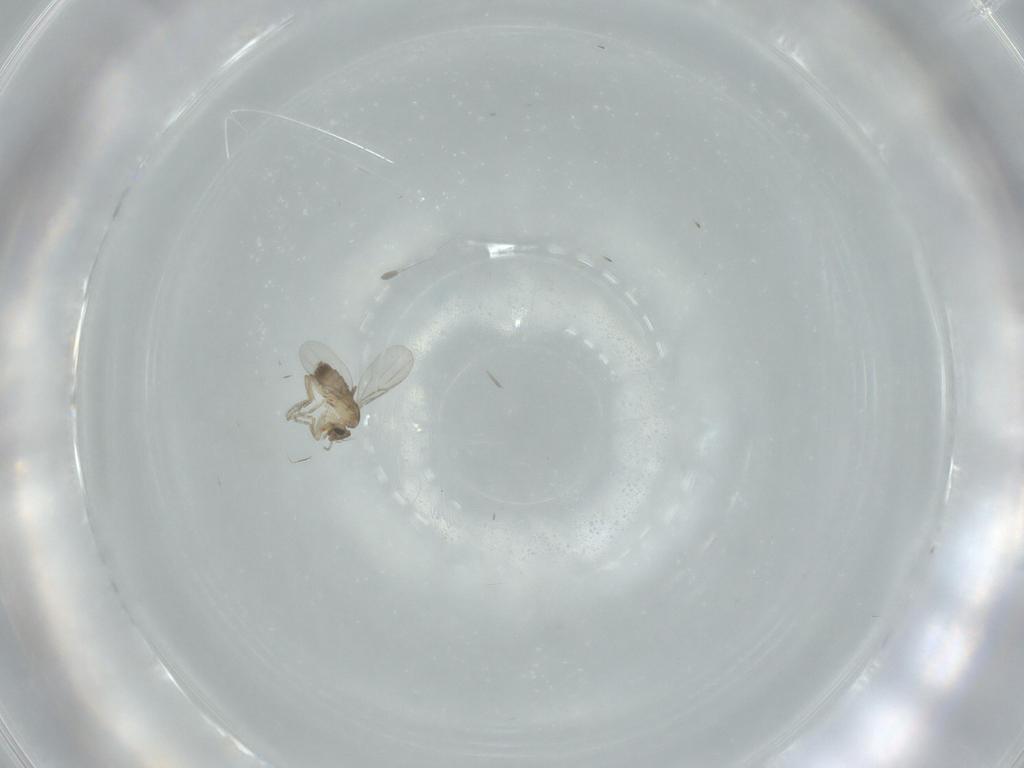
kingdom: Animalia
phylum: Arthropoda
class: Insecta
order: Diptera
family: Phoridae
